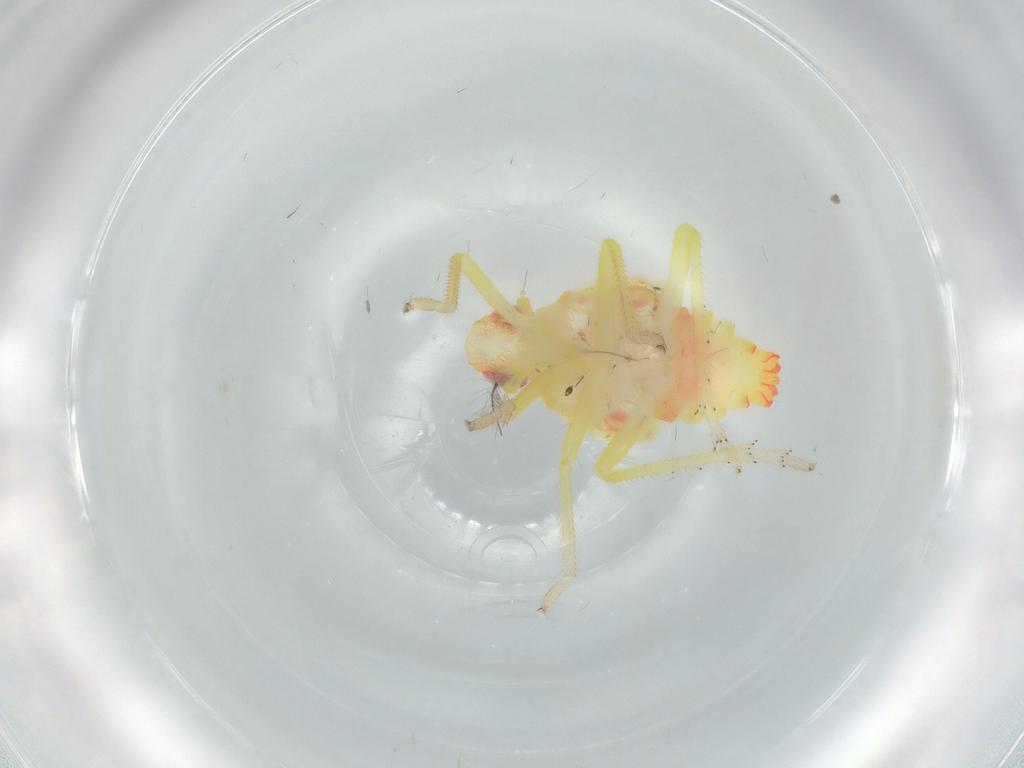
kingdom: Animalia
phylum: Arthropoda
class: Insecta
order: Hemiptera
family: Tropiduchidae
